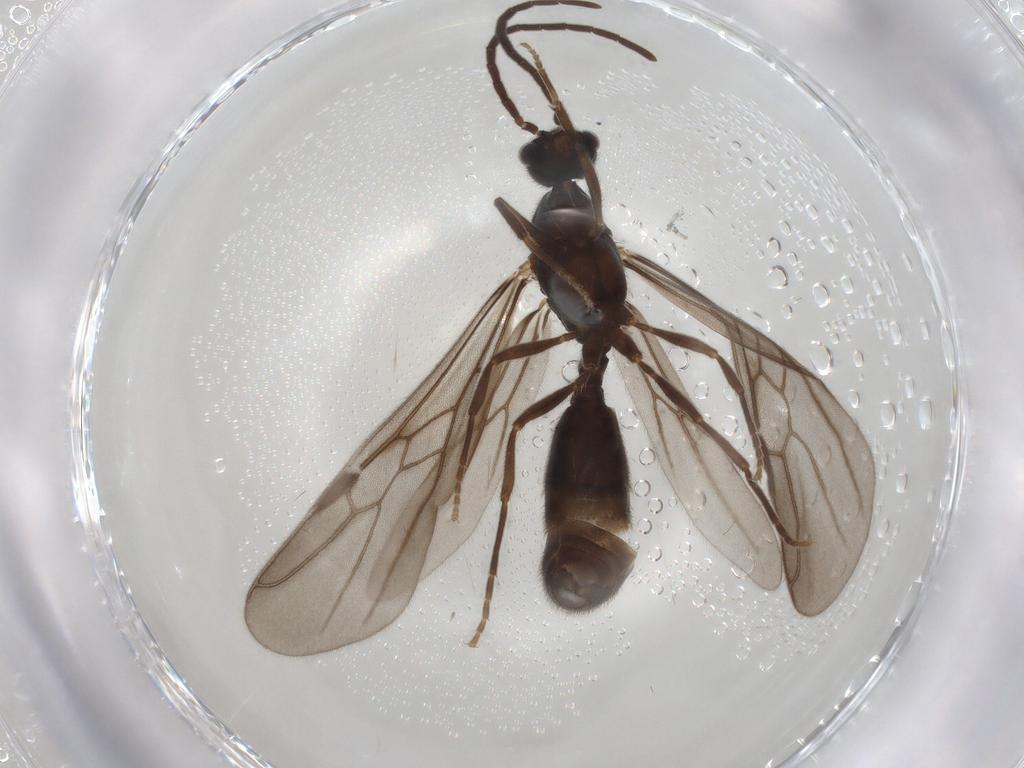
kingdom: Animalia
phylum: Arthropoda
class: Insecta
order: Hymenoptera
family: Formicidae
